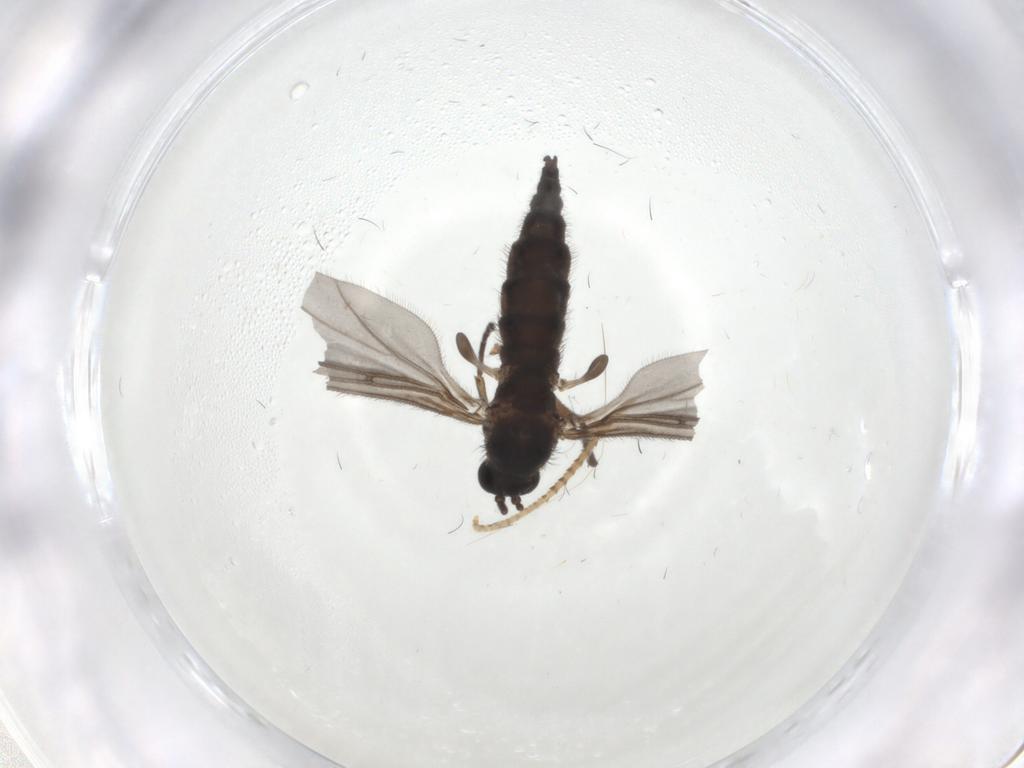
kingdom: Animalia
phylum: Arthropoda
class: Insecta
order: Diptera
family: Sciaridae
